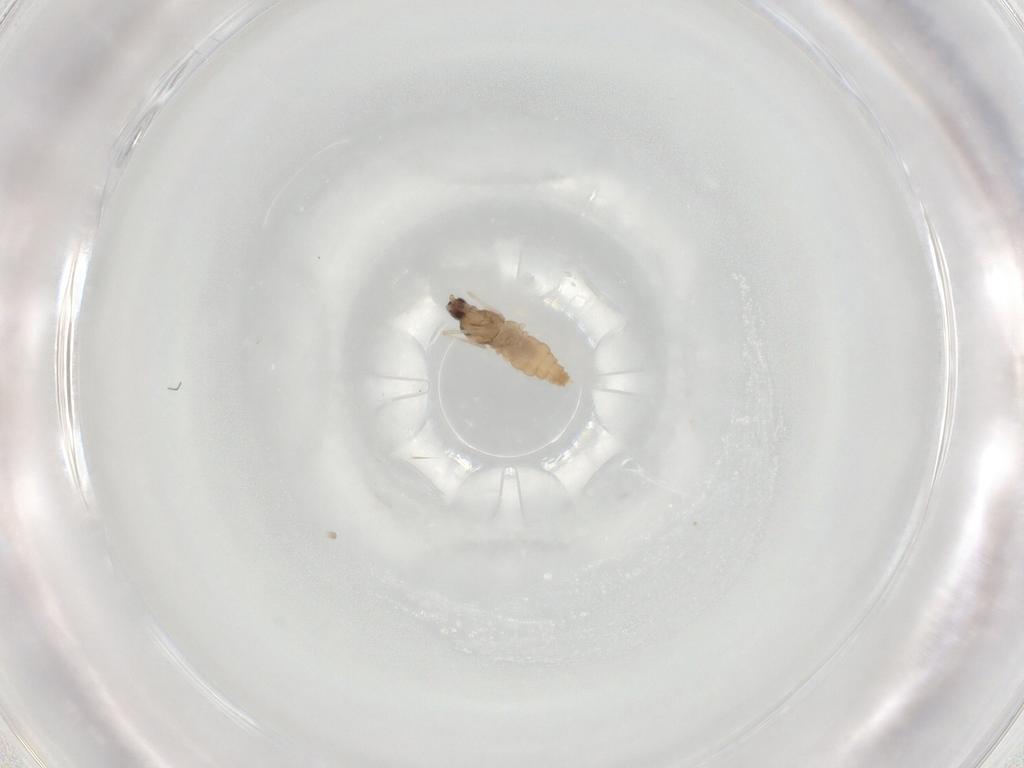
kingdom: Animalia
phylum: Arthropoda
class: Insecta
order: Diptera
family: Cecidomyiidae
